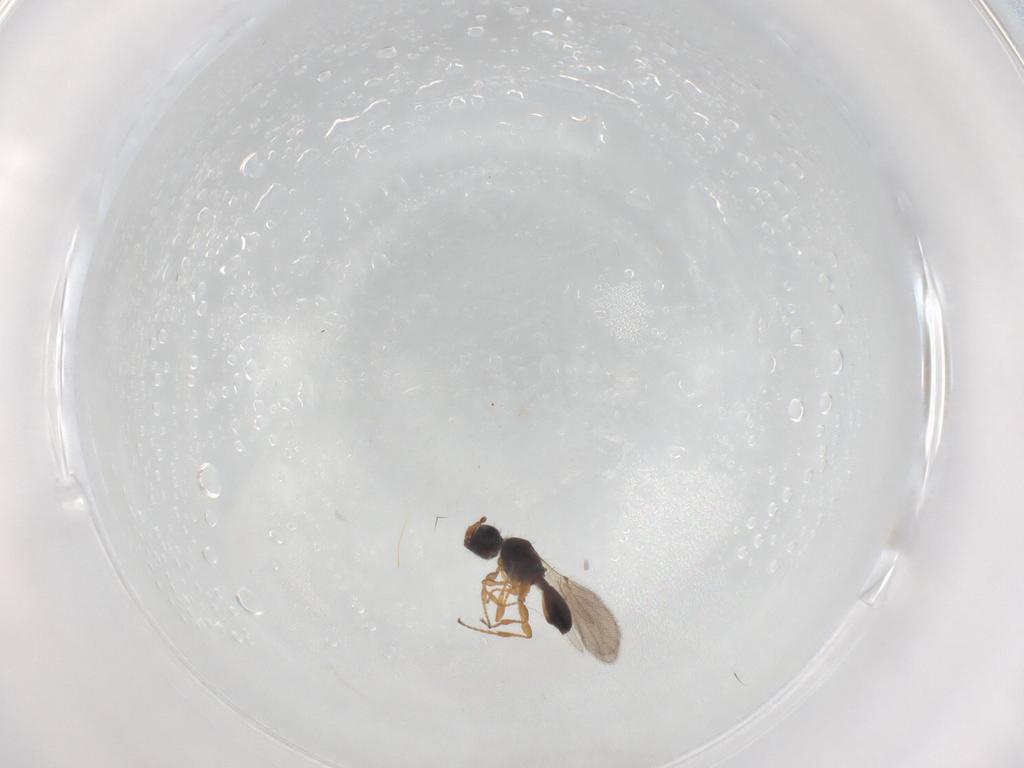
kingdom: Animalia
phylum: Arthropoda
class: Insecta
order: Hymenoptera
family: Diapriidae
